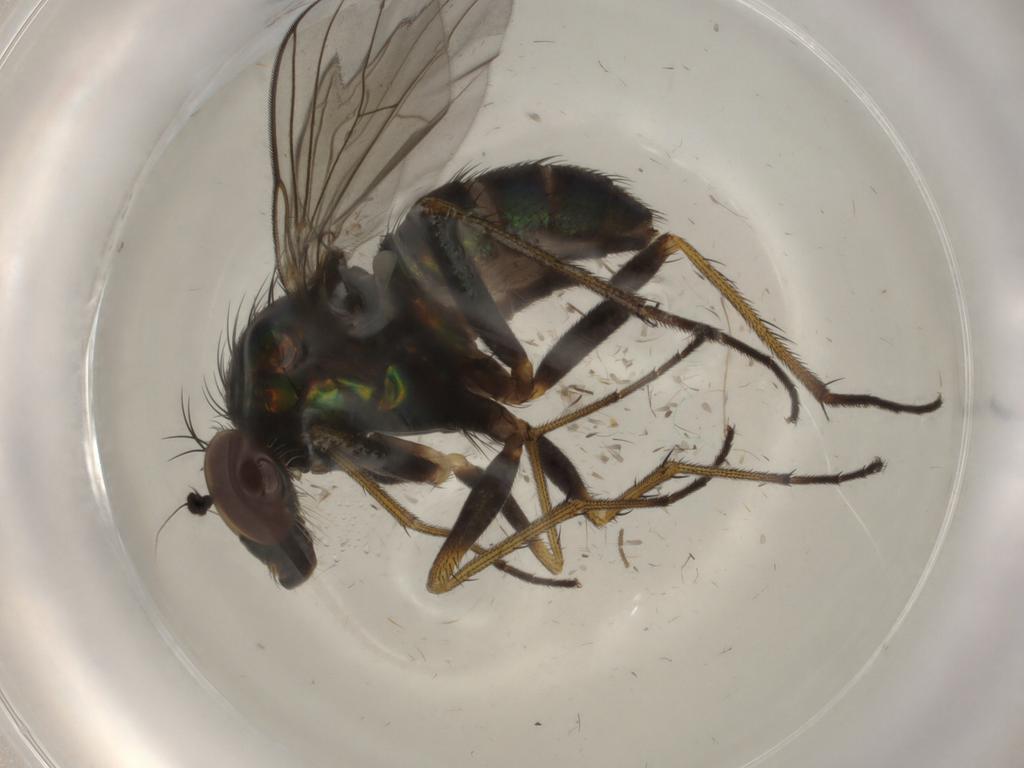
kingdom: Animalia
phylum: Arthropoda
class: Insecta
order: Diptera
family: Dolichopodidae
